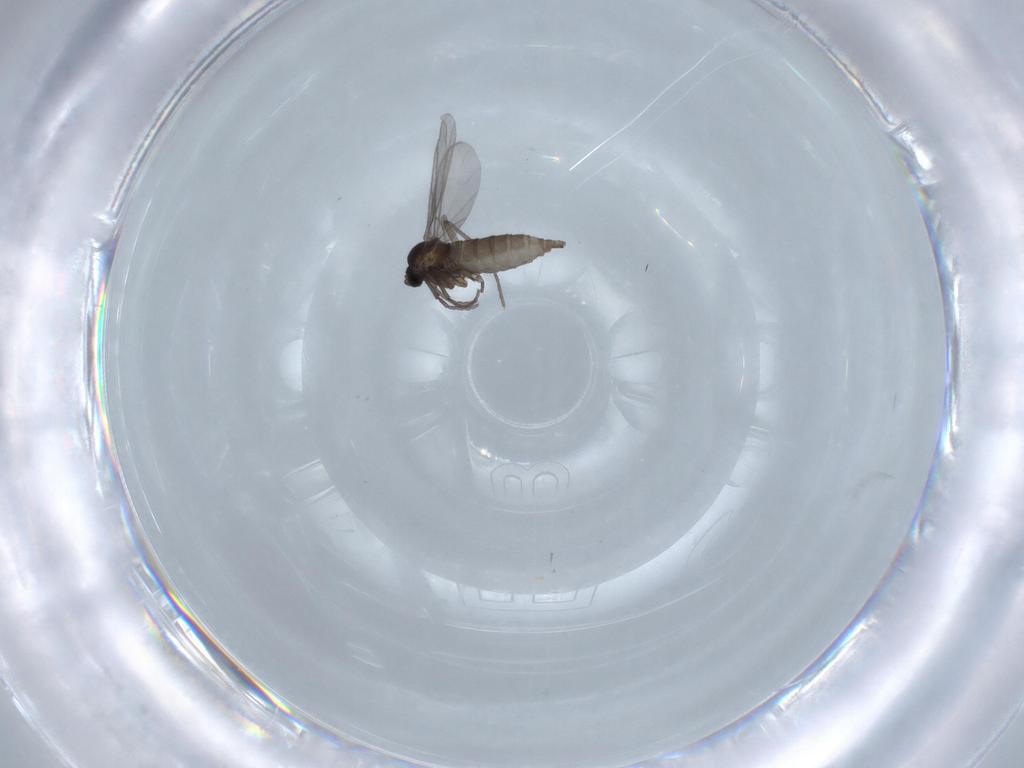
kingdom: Animalia
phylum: Arthropoda
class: Insecta
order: Diptera
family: Sciaridae
